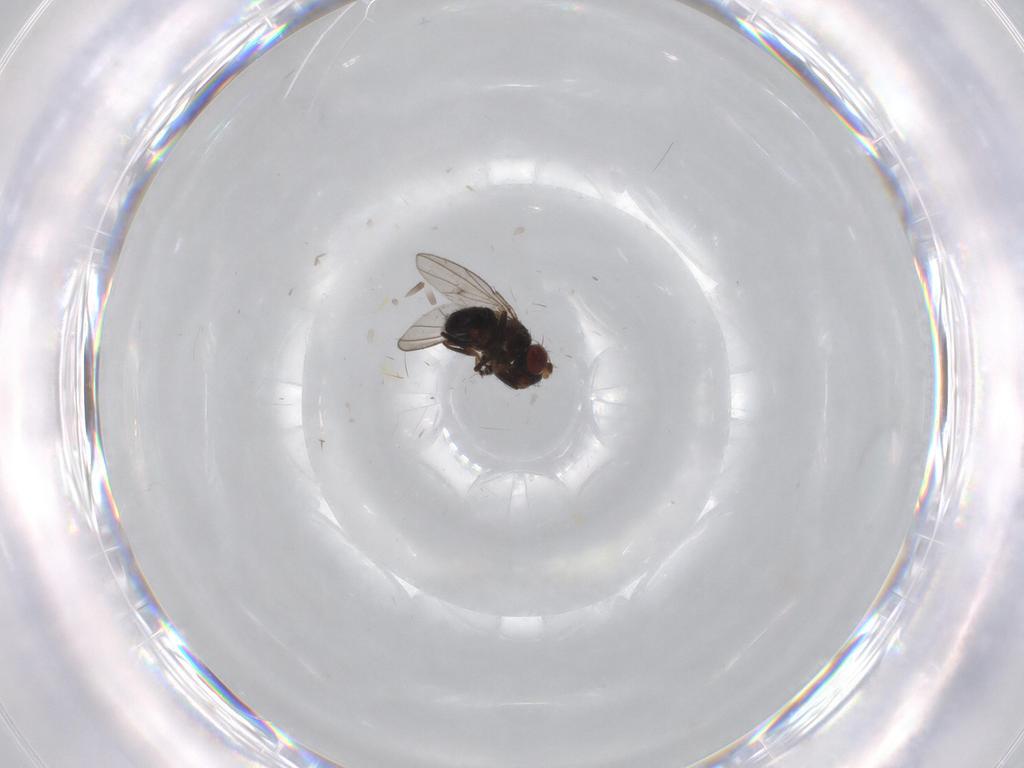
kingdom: Animalia
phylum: Arthropoda
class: Insecta
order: Diptera
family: Ephydridae
